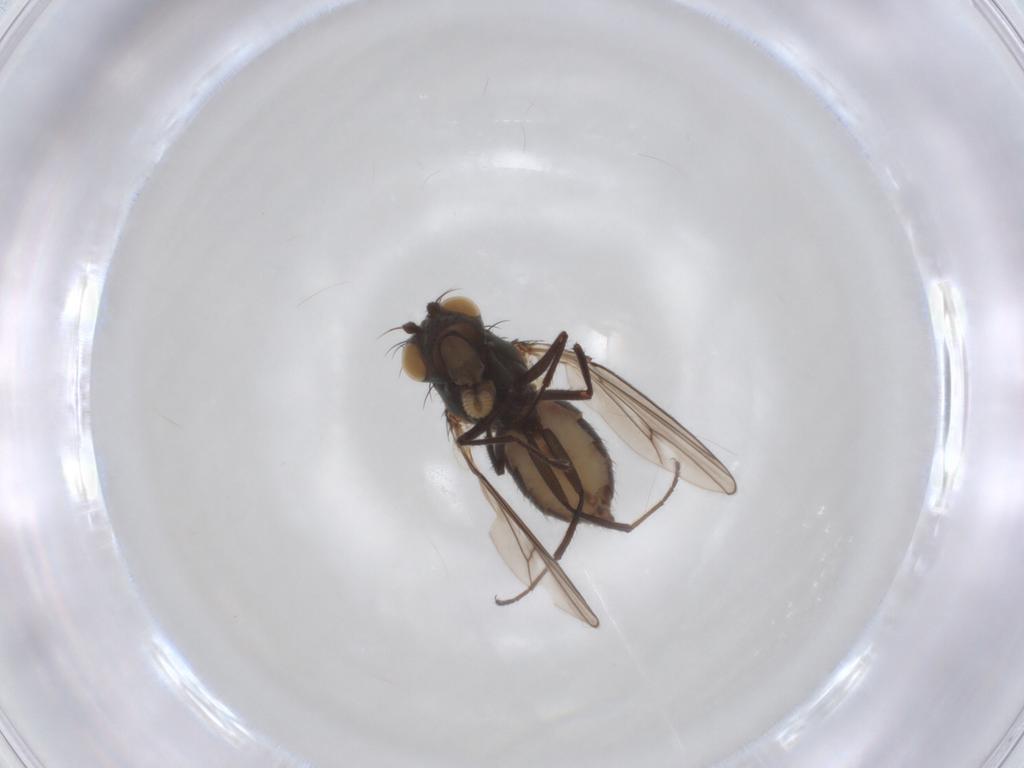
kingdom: Animalia
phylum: Arthropoda
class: Insecta
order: Diptera
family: Ephydridae
